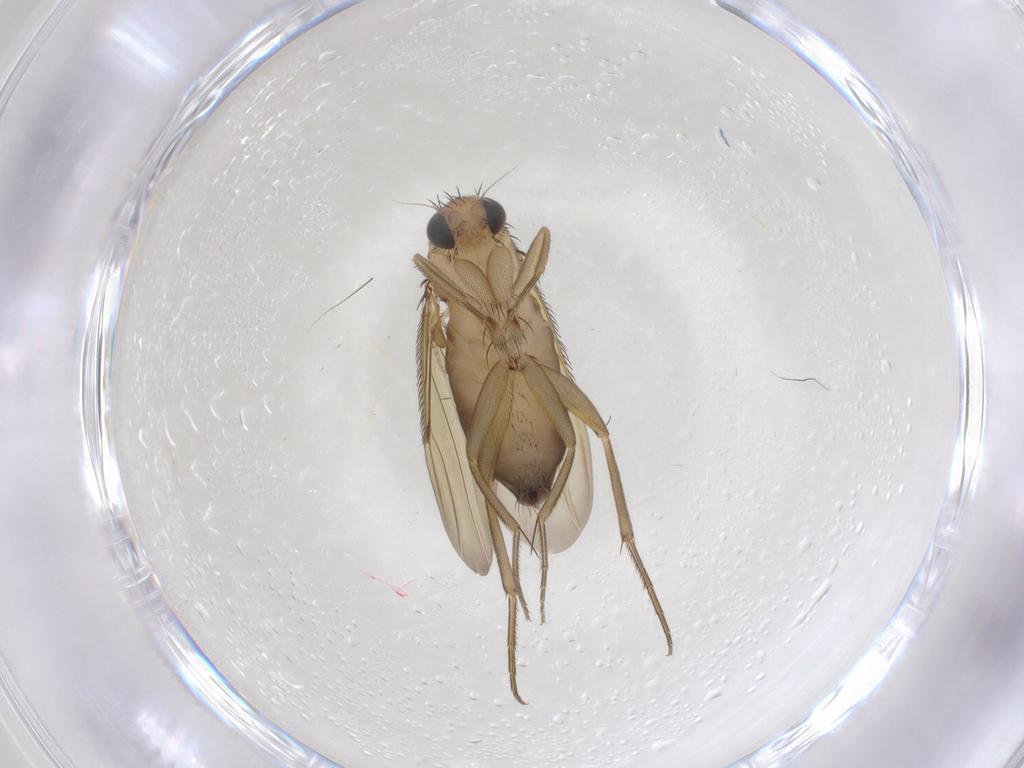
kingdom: Animalia
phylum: Arthropoda
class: Insecta
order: Diptera
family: Phoridae
